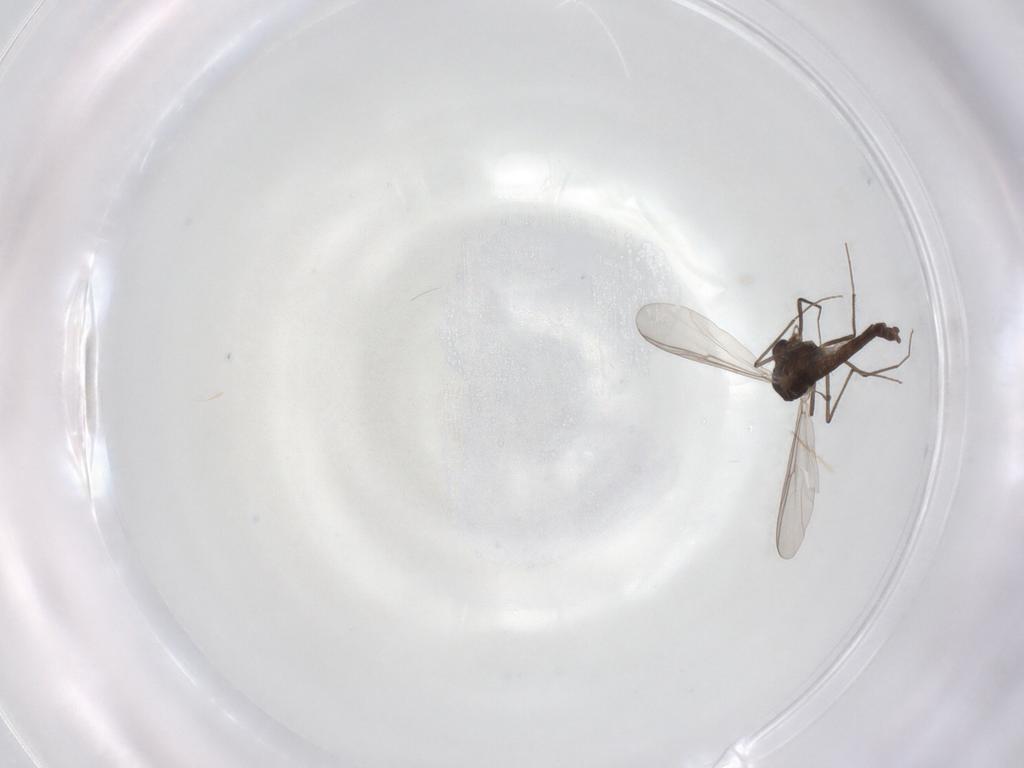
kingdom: Animalia
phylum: Arthropoda
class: Insecta
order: Diptera
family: Chironomidae
